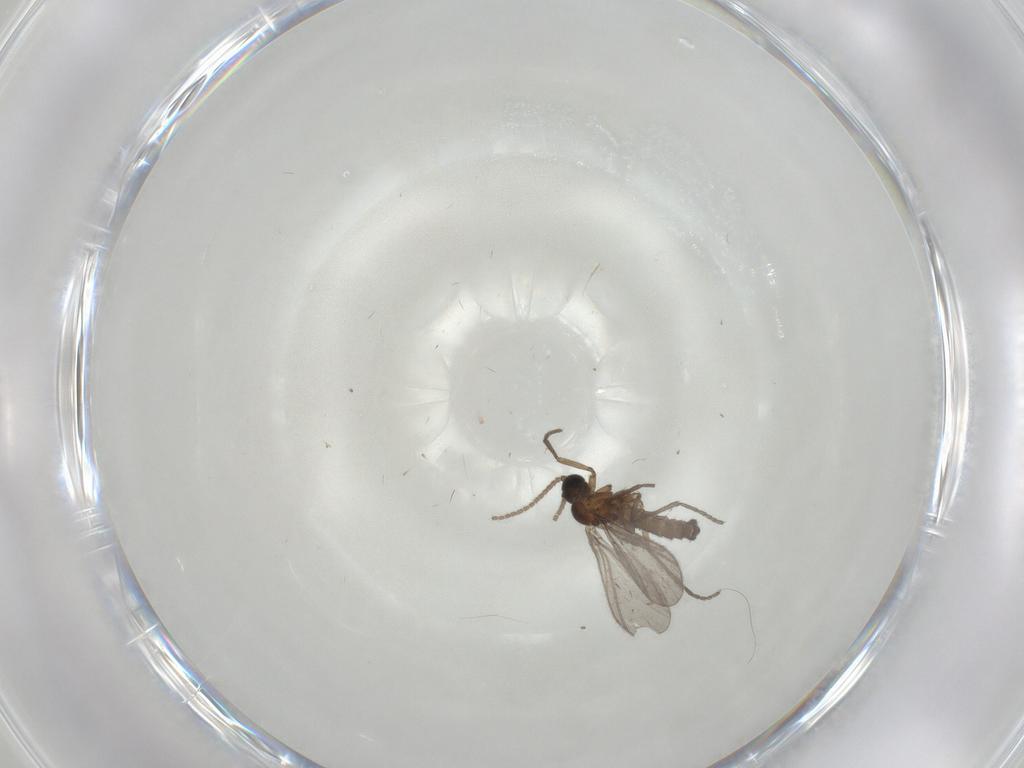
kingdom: Animalia
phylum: Arthropoda
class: Insecta
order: Diptera
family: Sciaridae
